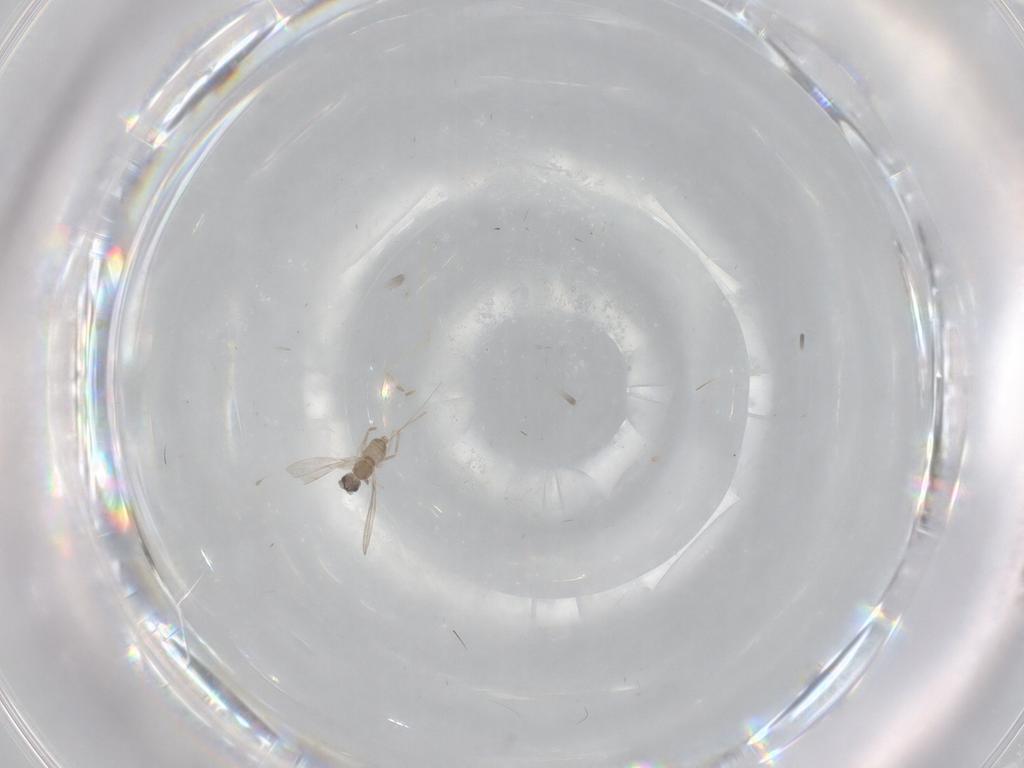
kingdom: Animalia
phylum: Arthropoda
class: Insecta
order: Diptera
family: Cecidomyiidae
